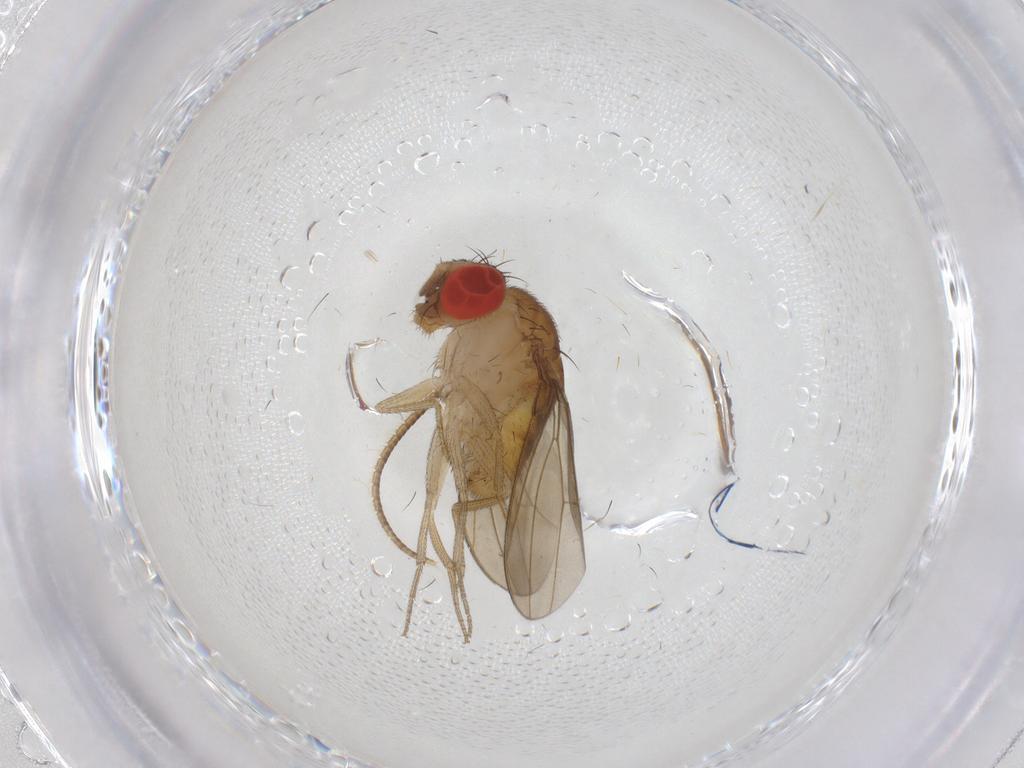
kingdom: Animalia
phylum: Arthropoda
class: Insecta
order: Diptera
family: Drosophilidae
